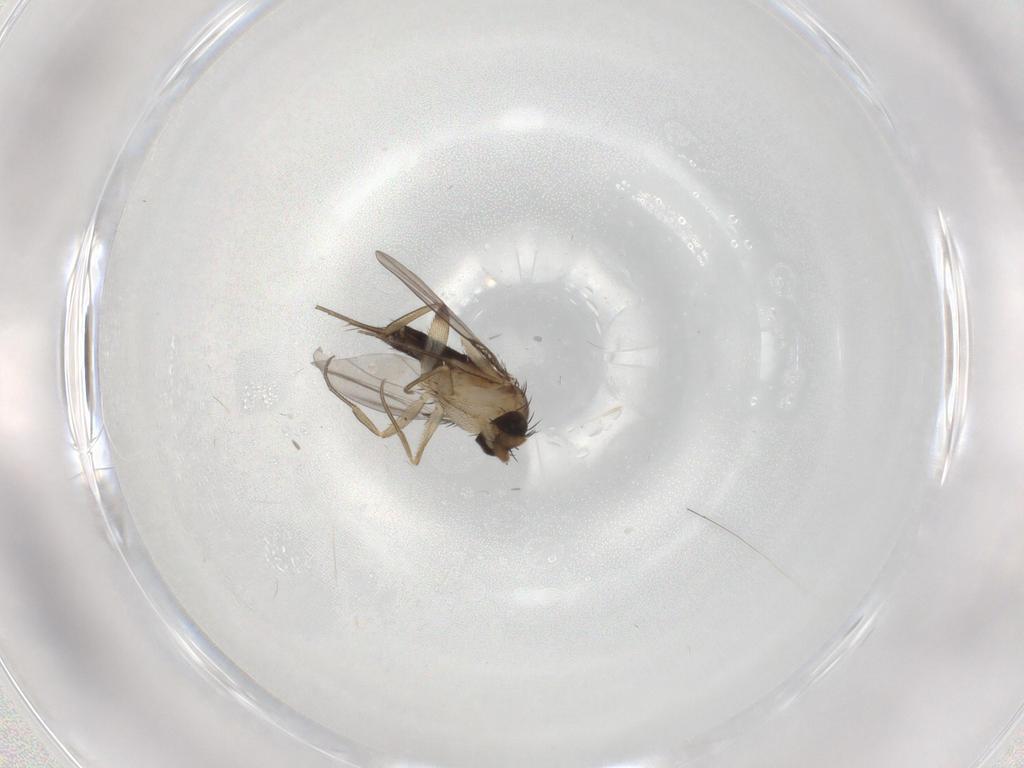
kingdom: Animalia
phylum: Arthropoda
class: Insecta
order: Diptera
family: Phoridae
